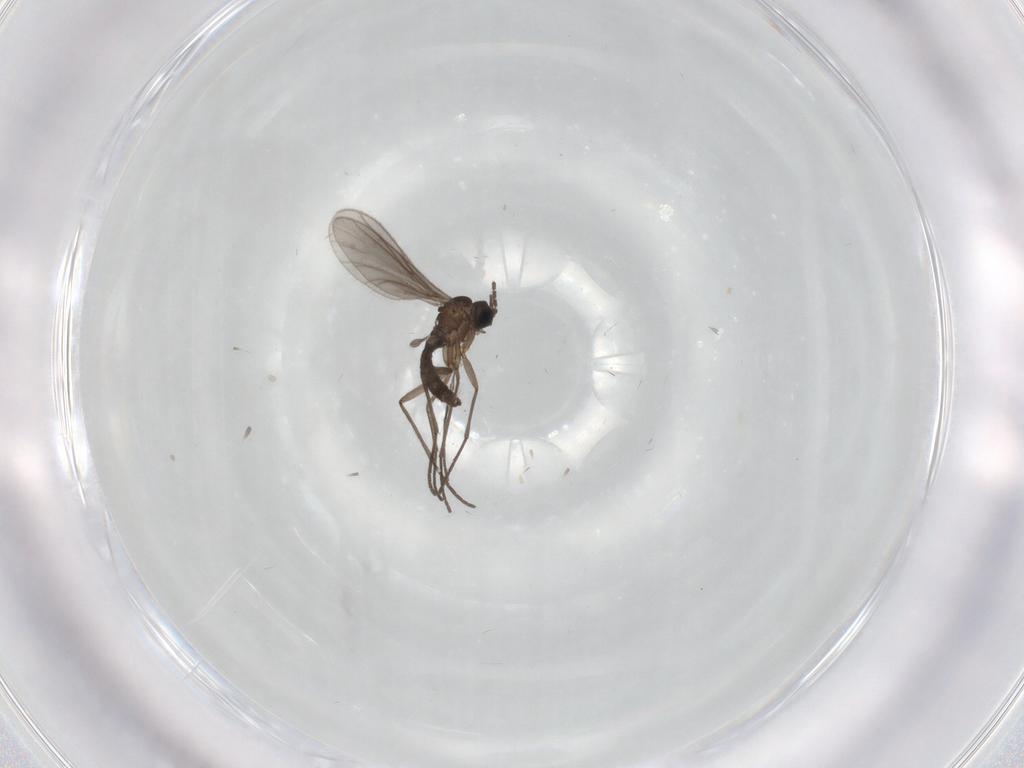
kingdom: Animalia
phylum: Arthropoda
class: Insecta
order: Diptera
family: Sciaridae
